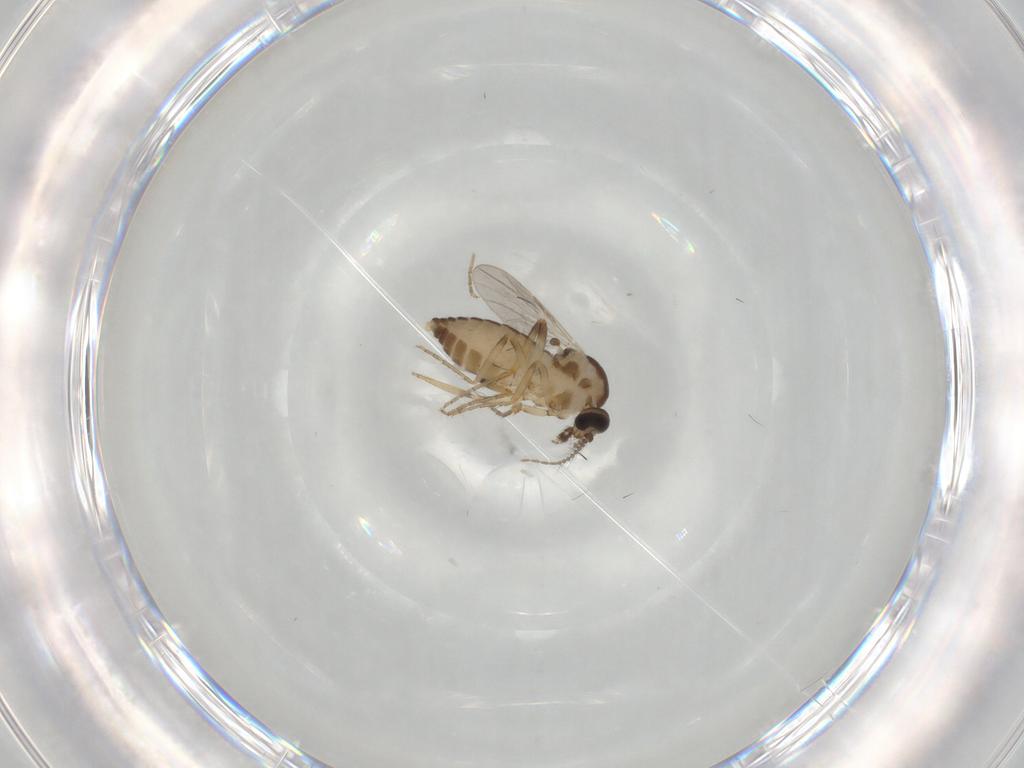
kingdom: Animalia
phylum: Arthropoda
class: Insecta
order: Diptera
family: Ceratopogonidae
